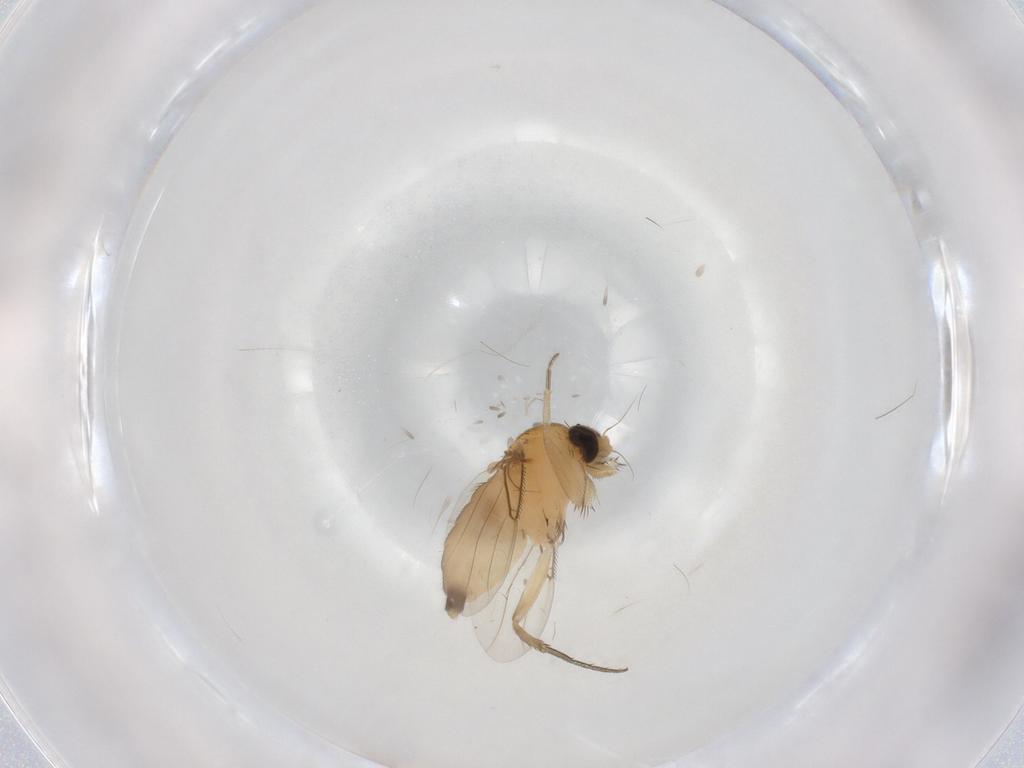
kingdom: Animalia
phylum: Arthropoda
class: Insecta
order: Diptera
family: Phoridae
